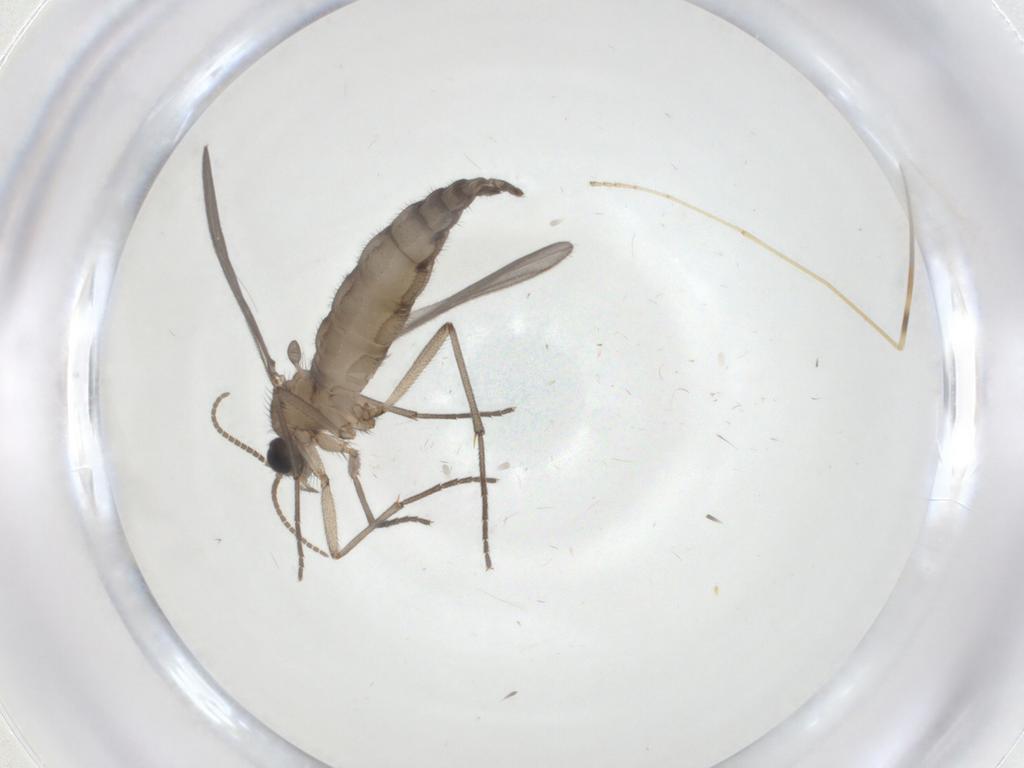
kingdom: Animalia
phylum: Arthropoda
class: Insecta
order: Diptera
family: Limoniidae
